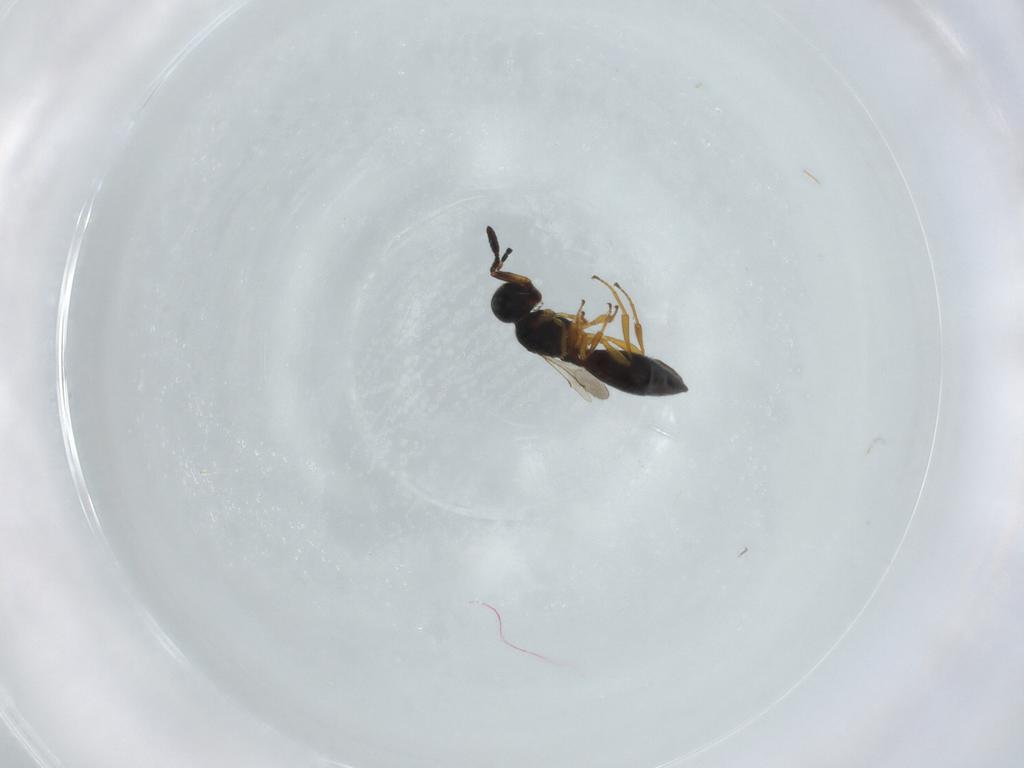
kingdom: Animalia
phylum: Arthropoda
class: Insecta
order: Hymenoptera
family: Scelionidae
